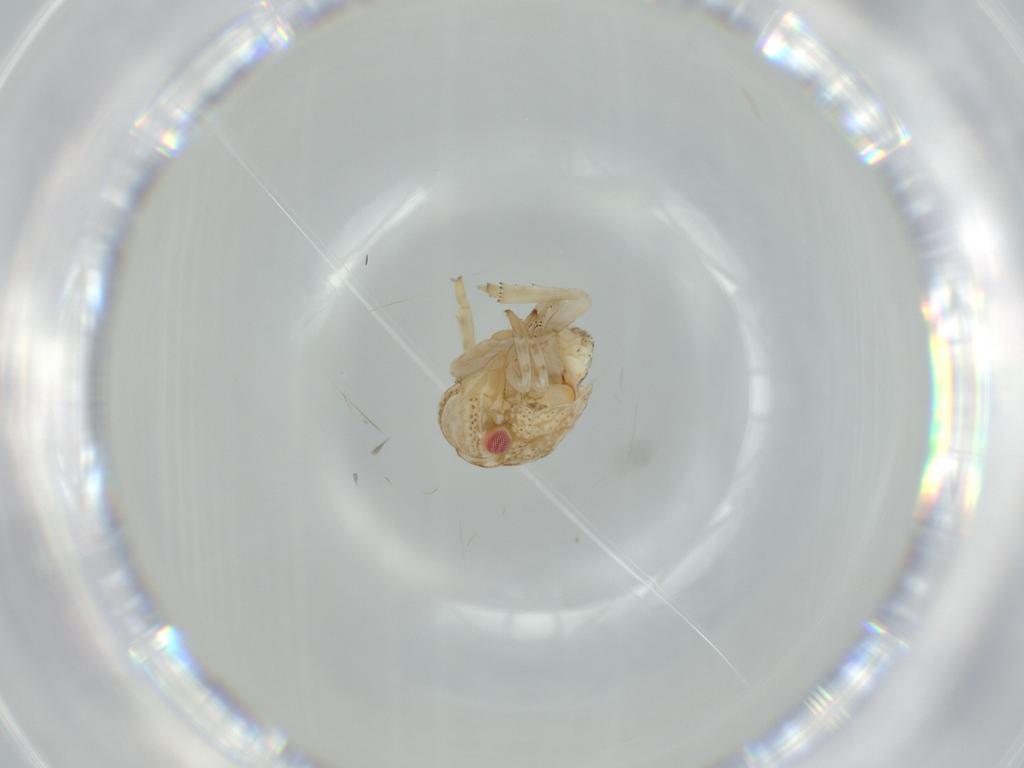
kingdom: Animalia
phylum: Arthropoda
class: Insecta
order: Hemiptera
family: Acanaloniidae
